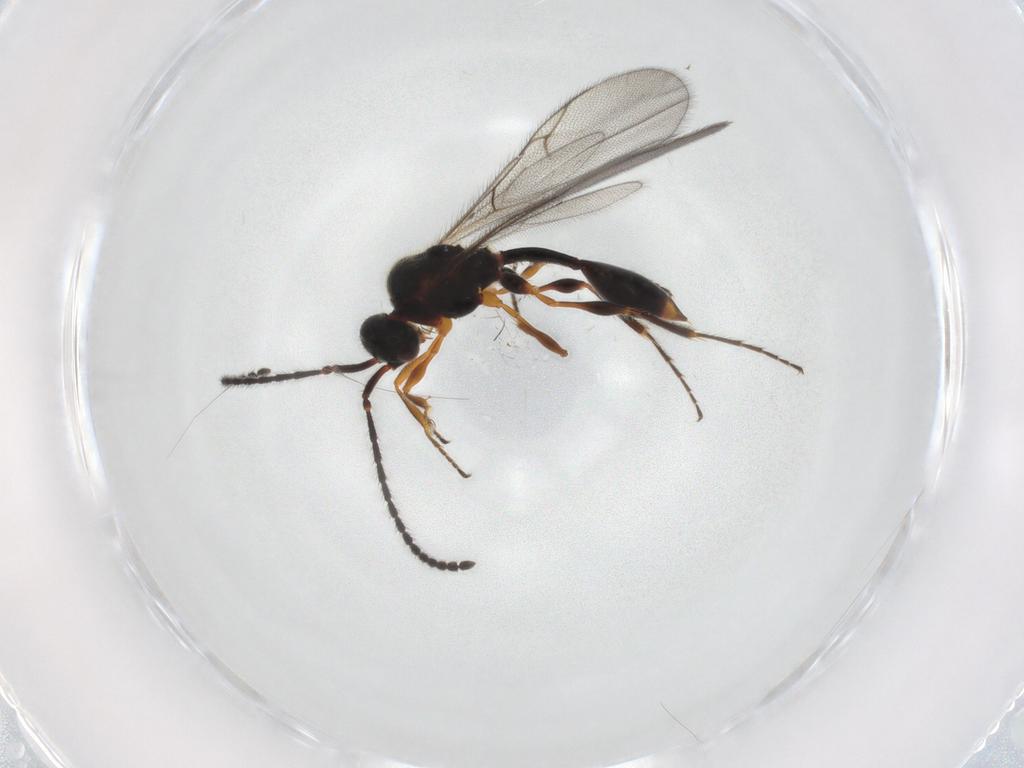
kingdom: Animalia
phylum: Arthropoda
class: Insecta
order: Hymenoptera
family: Diapriidae
